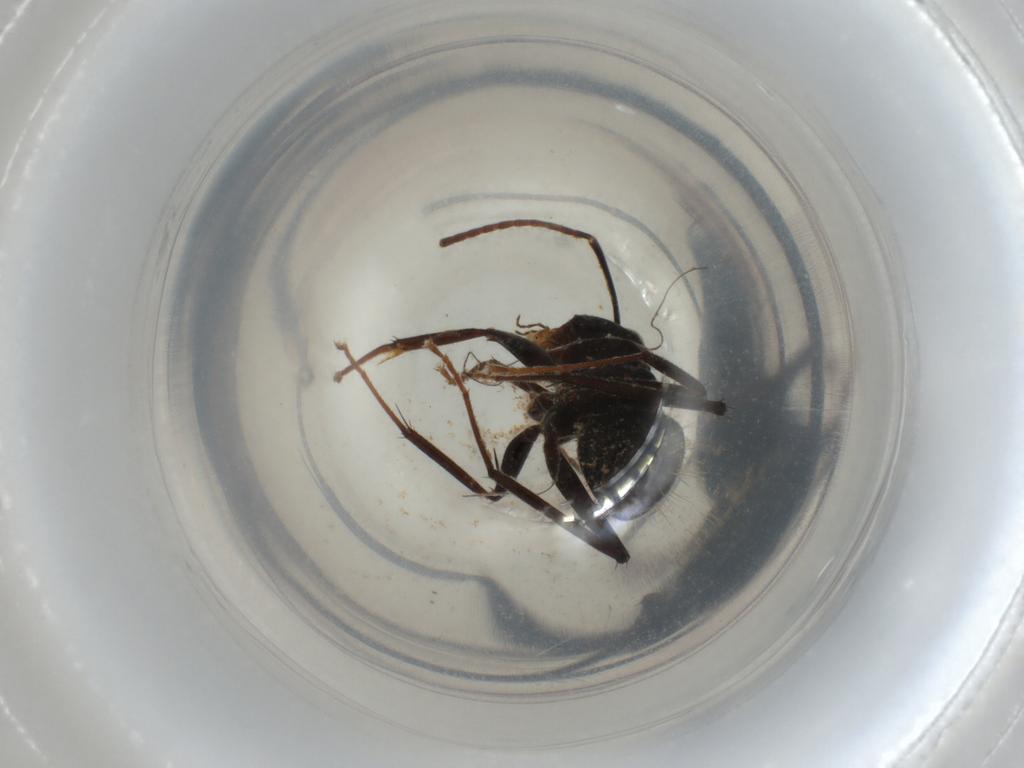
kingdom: Animalia
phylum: Arthropoda
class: Insecta
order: Hymenoptera
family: Formicidae
